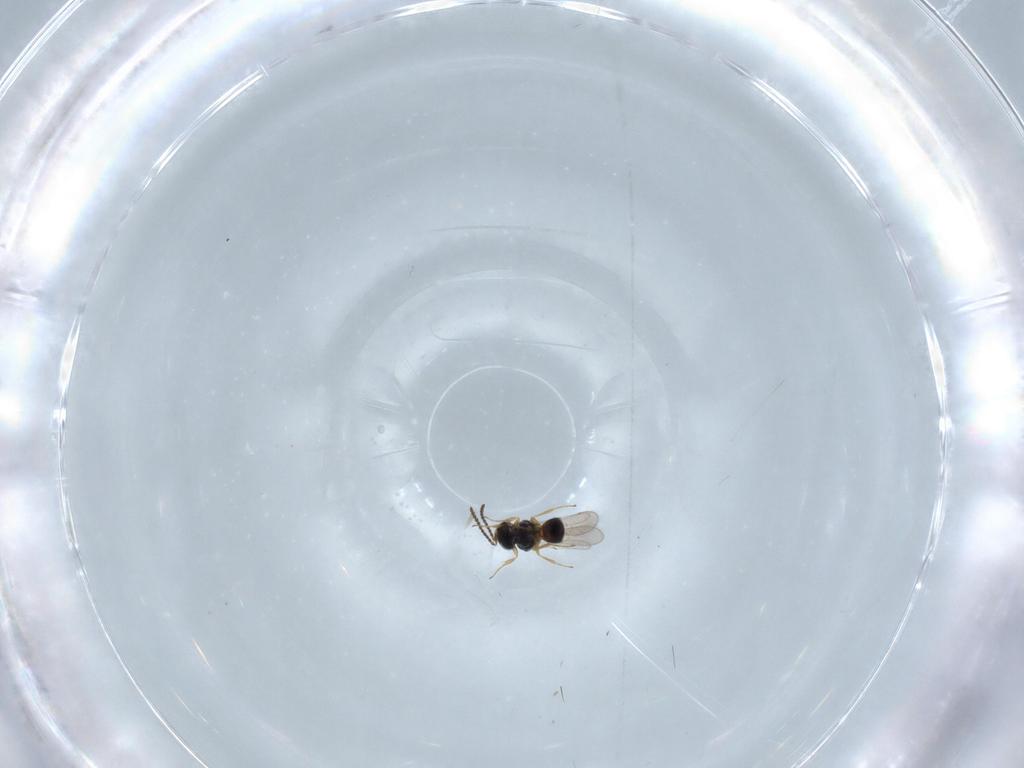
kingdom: Animalia
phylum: Arthropoda
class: Insecta
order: Hymenoptera
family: Scelionidae
